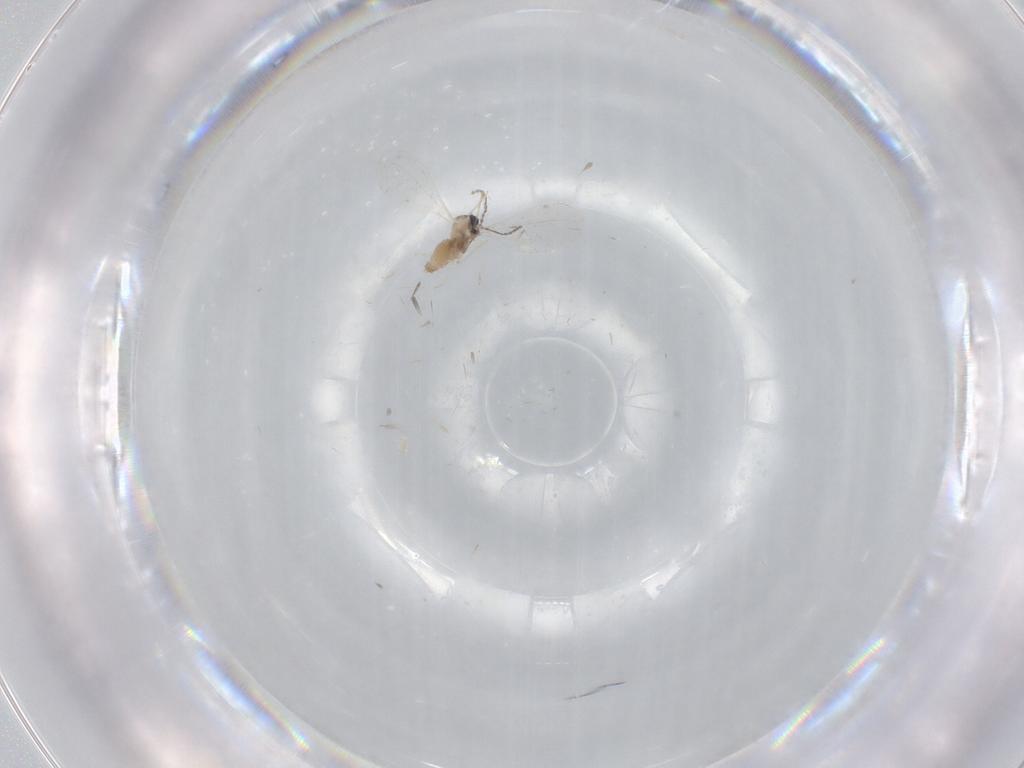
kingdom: Animalia
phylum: Arthropoda
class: Insecta
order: Diptera
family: Cecidomyiidae
